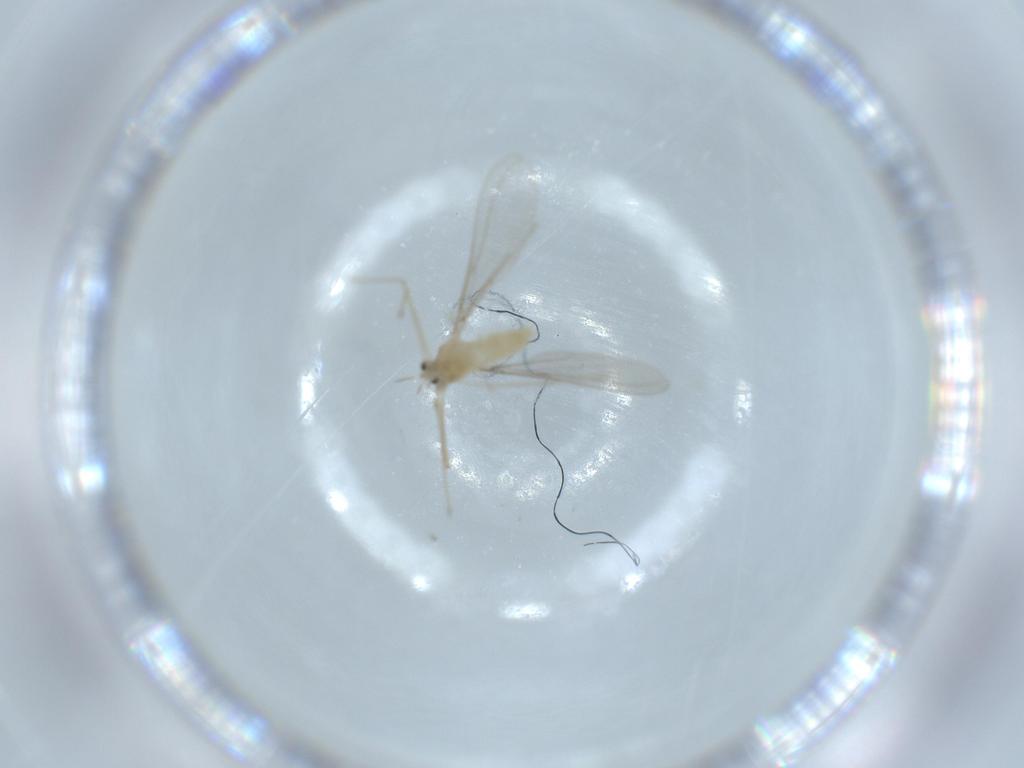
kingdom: Animalia
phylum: Arthropoda
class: Insecta
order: Diptera
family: Cecidomyiidae
